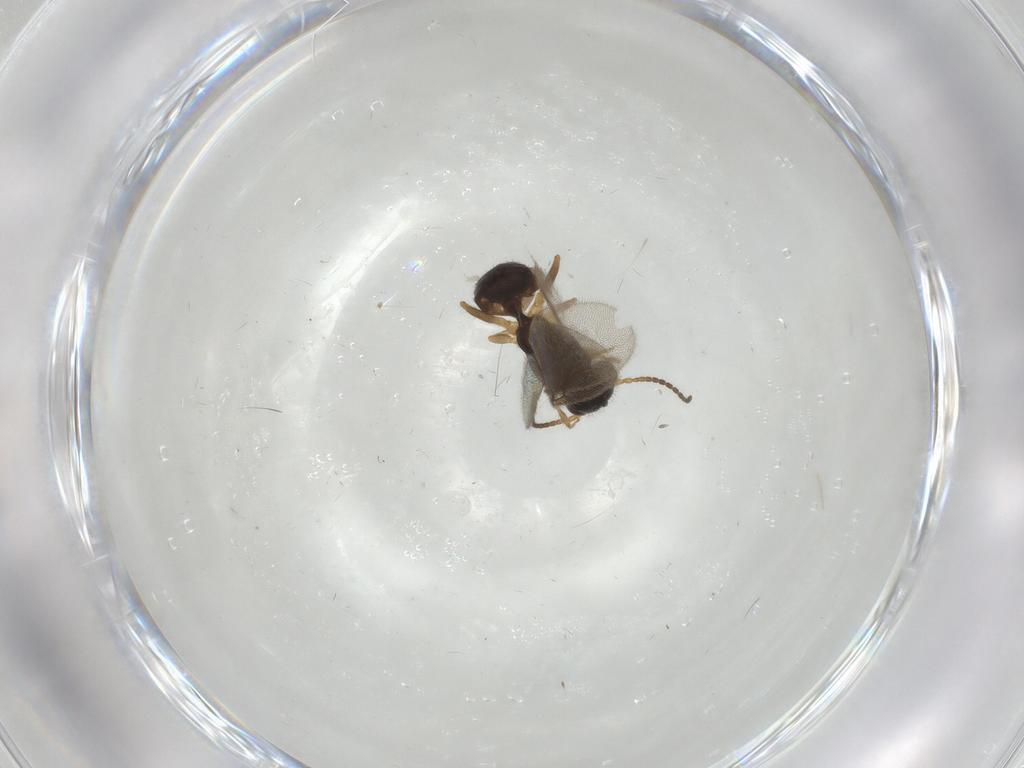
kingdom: Animalia
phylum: Arthropoda
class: Insecta
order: Hymenoptera
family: Bethylidae
